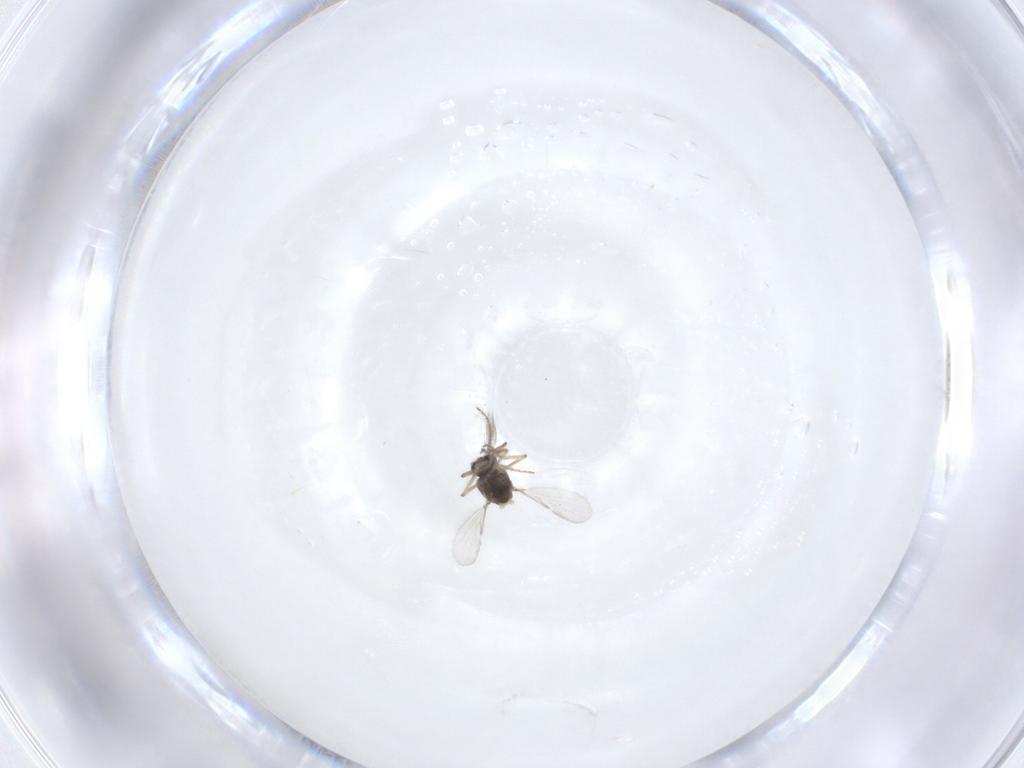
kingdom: Animalia
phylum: Arthropoda
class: Insecta
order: Diptera
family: Ceratopogonidae
